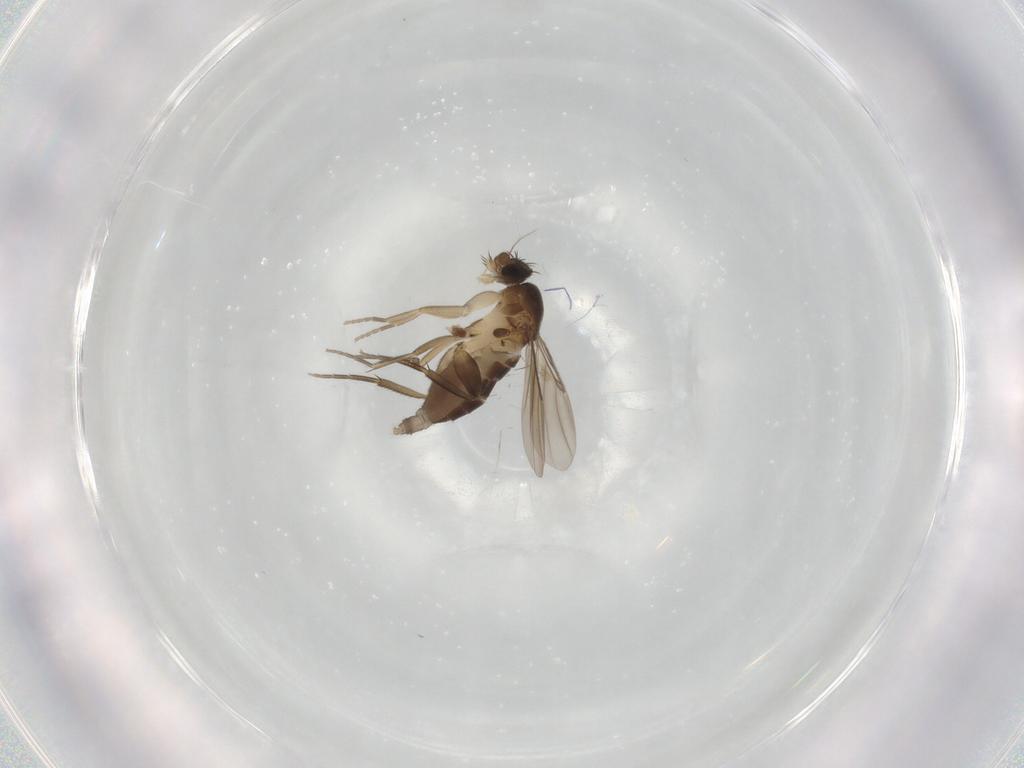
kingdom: Animalia
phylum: Arthropoda
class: Insecta
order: Diptera
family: Phoridae
